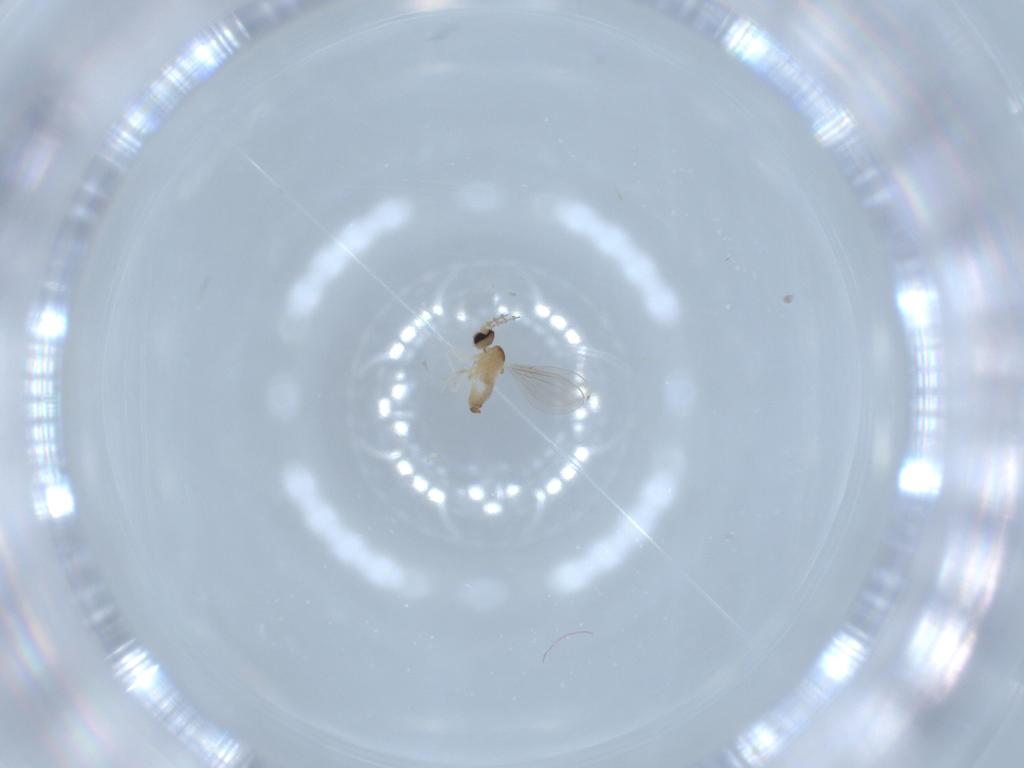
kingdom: Animalia
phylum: Arthropoda
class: Insecta
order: Diptera
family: Cecidomyiidae
